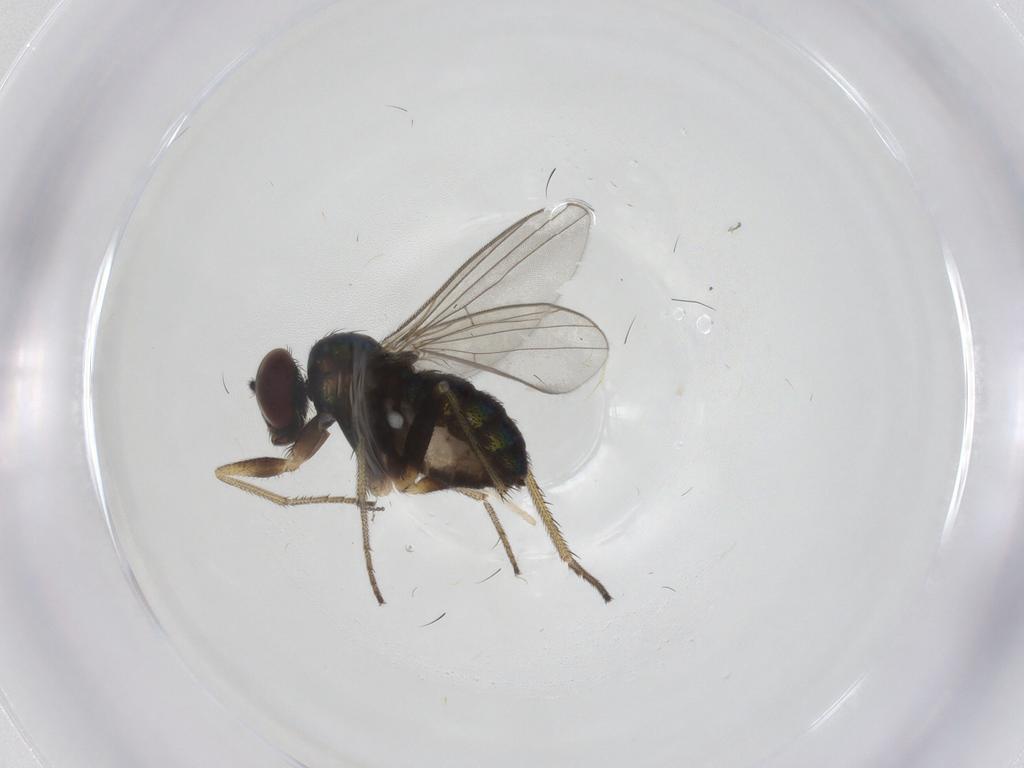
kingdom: Animalia
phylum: Arthropoda
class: Insecta
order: Diptera
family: Dolichopodidae
